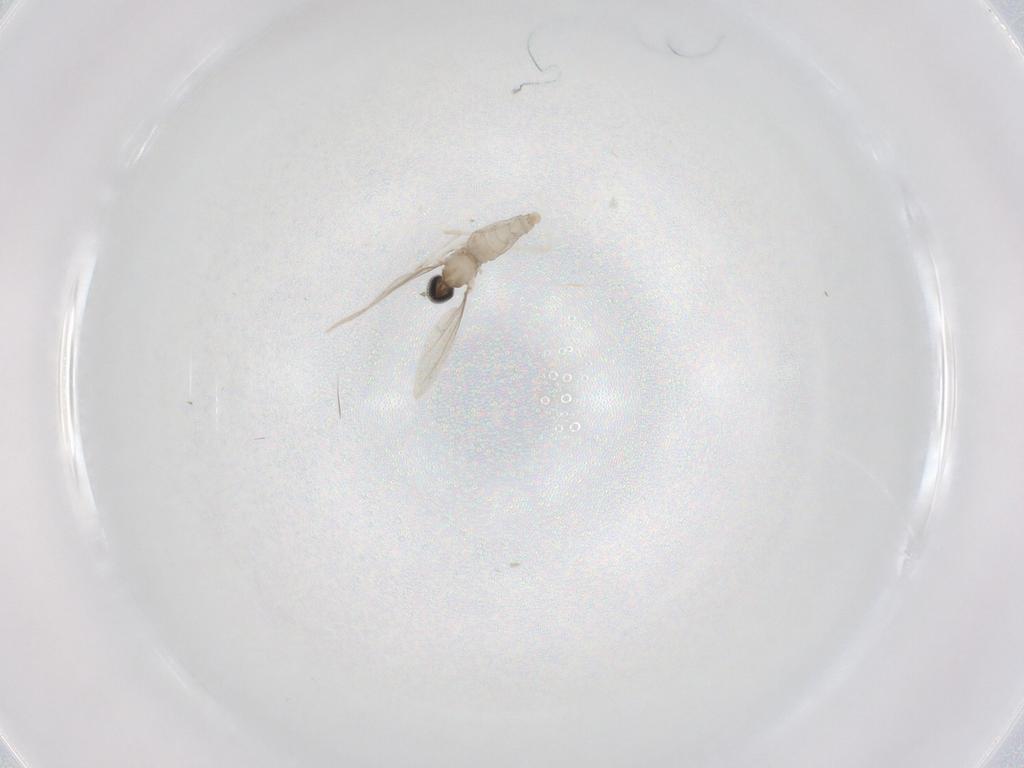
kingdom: Animalia
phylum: Arthropoda
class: Insecta
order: Diptera
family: Cecidomyiidae
